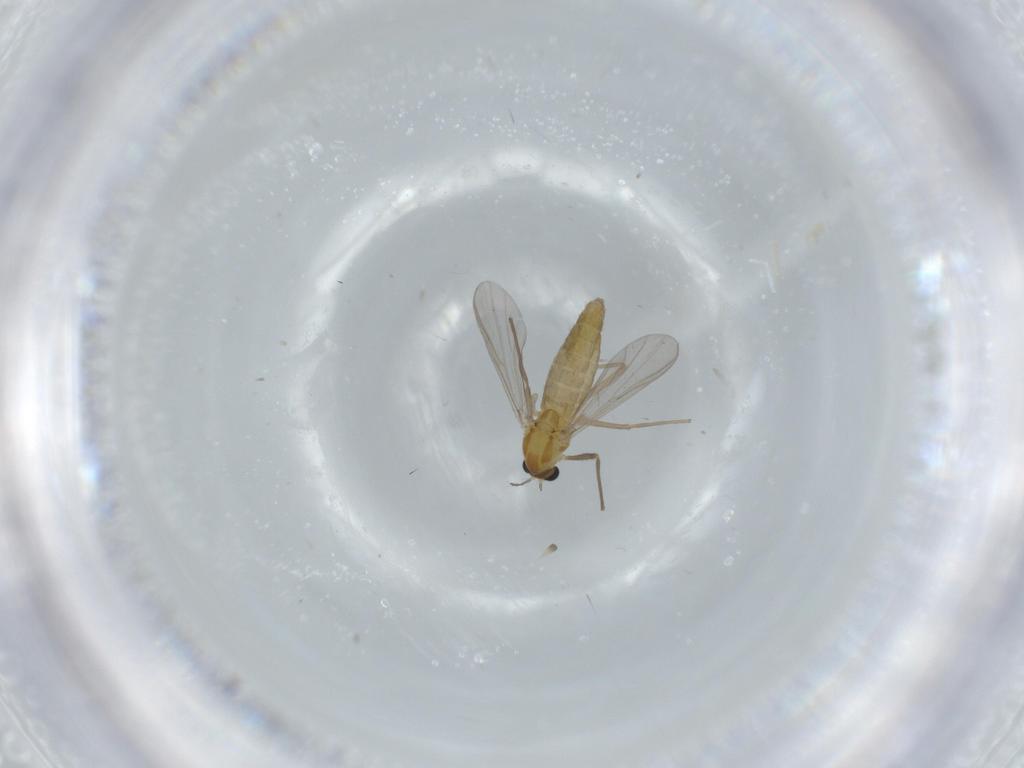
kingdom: Animalia
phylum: Arthropoda
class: Insecta
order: Diptera
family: Chironomidae
